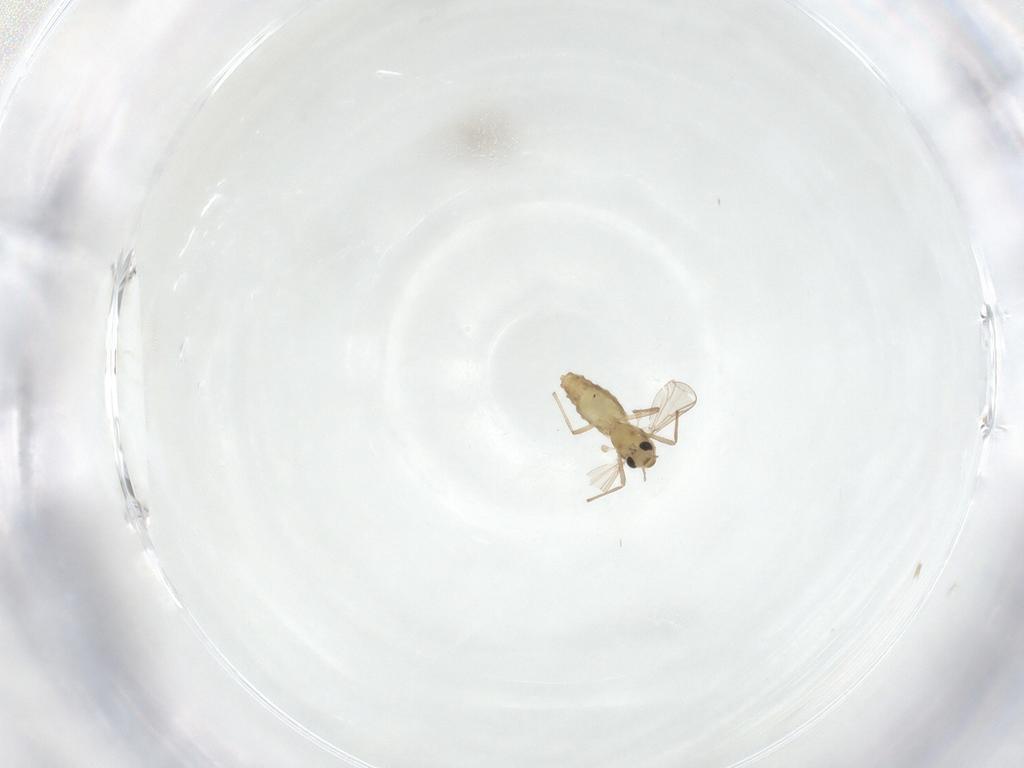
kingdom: Animalia
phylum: Arthropoda
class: Insecta
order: Diptera
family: Chironomidae
